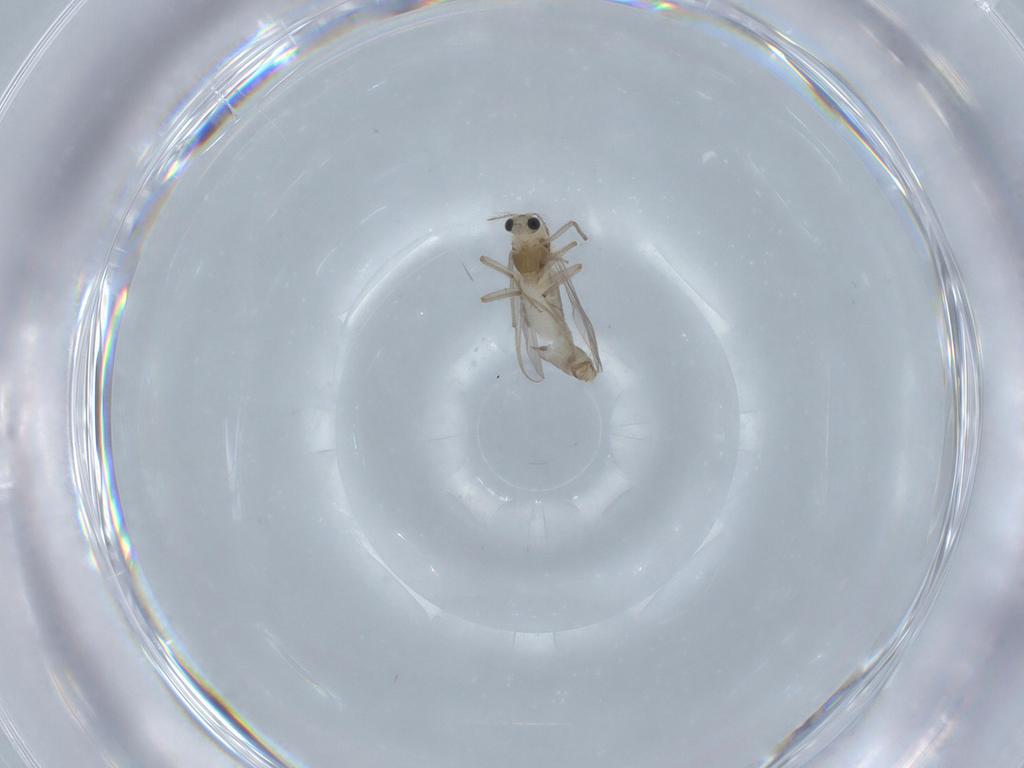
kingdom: Animalia
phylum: Arthropoda
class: Insecta
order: Diptera
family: Chironomidae
